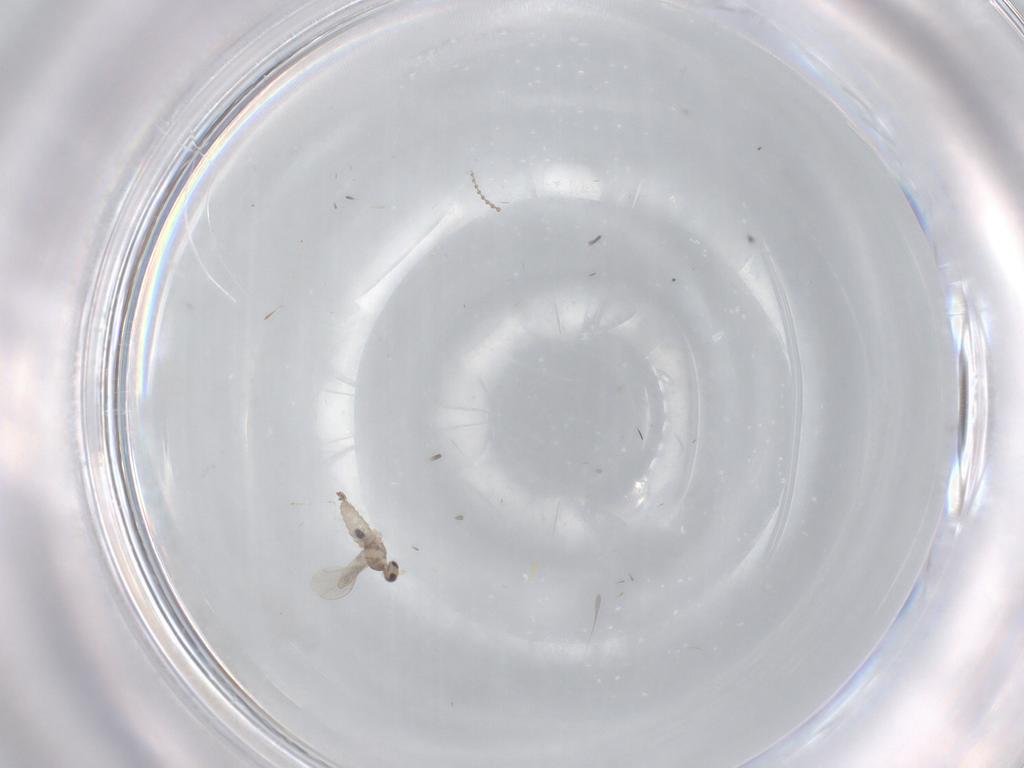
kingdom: Animalia
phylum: Arthropoda
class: Insecta
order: Diptera
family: Cecidomyiidae
